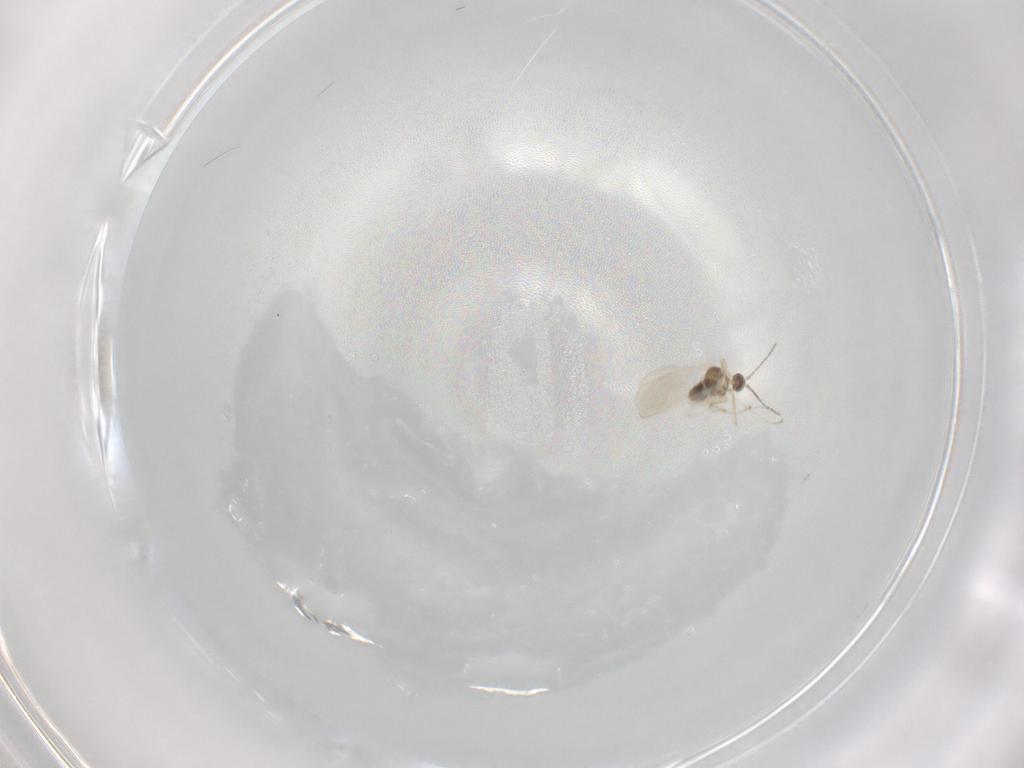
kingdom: Animalia
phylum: Arthropoda
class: Insecta
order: Diptera
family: Cecidomyiidae
